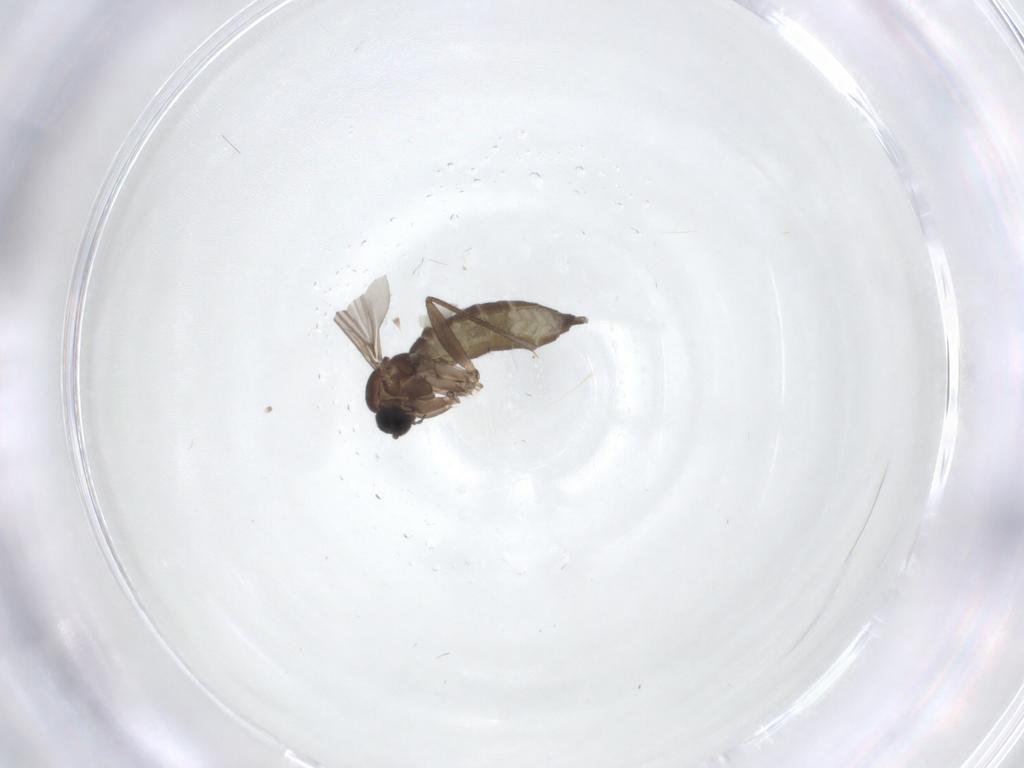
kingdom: Animalia
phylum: Arthropoda
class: Insecta
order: Diptera
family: Sciaridae
